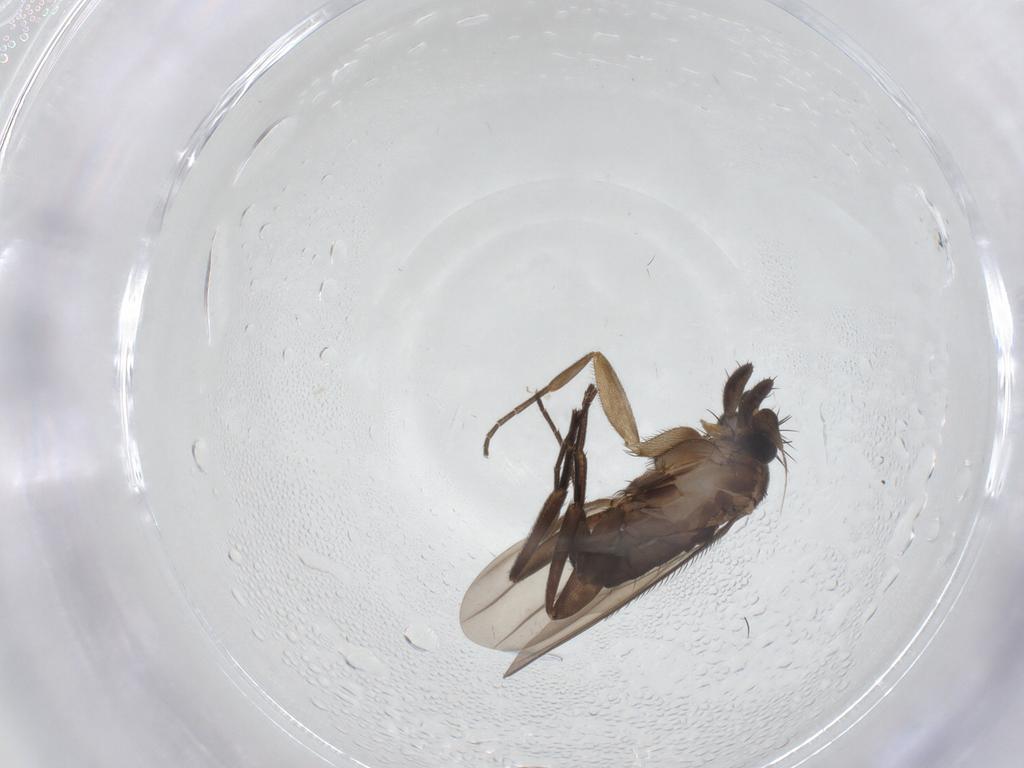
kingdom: Animalia
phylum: Arthropoda
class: Insecta
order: Diptera
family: Phoridae
